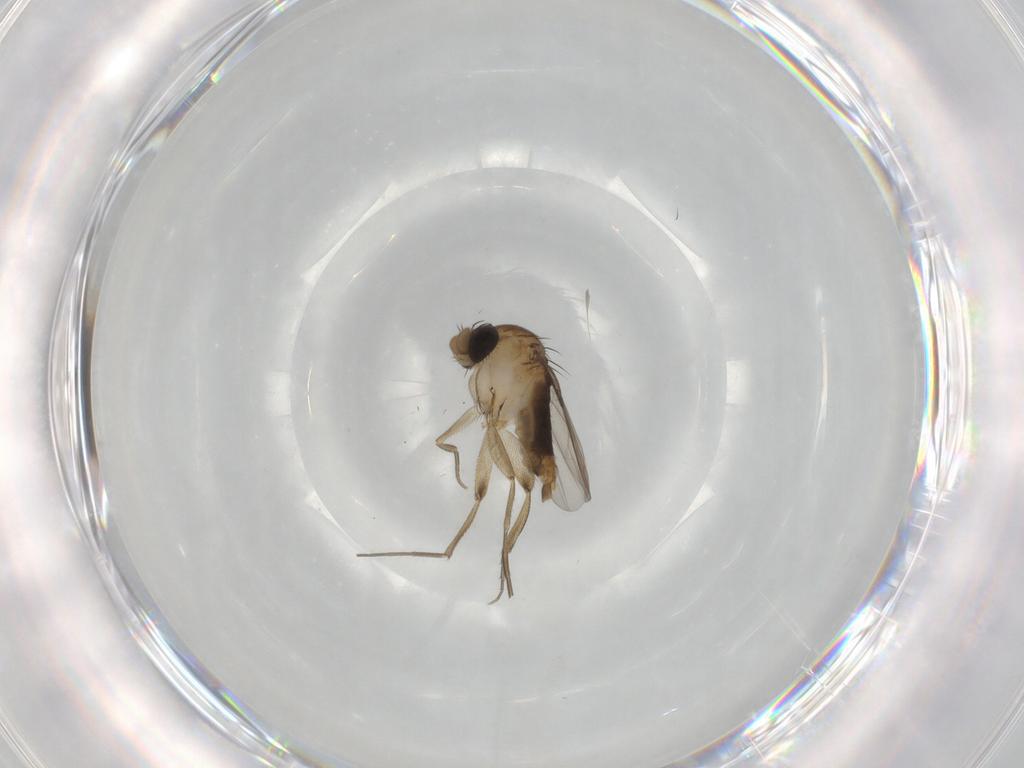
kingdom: Animalia
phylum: Arthropoda
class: Insecta
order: Diptera
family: Phoridae
